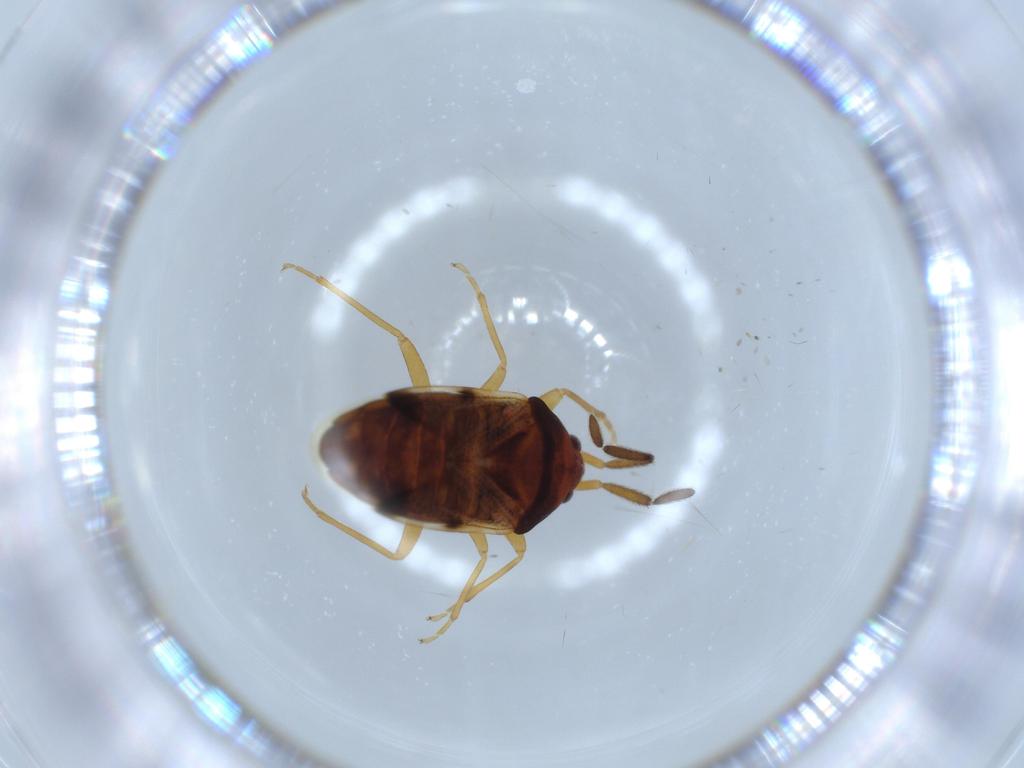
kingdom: Animalia
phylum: Arthropoda
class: Insecta
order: Hemiptera
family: Rhyparochromidae
